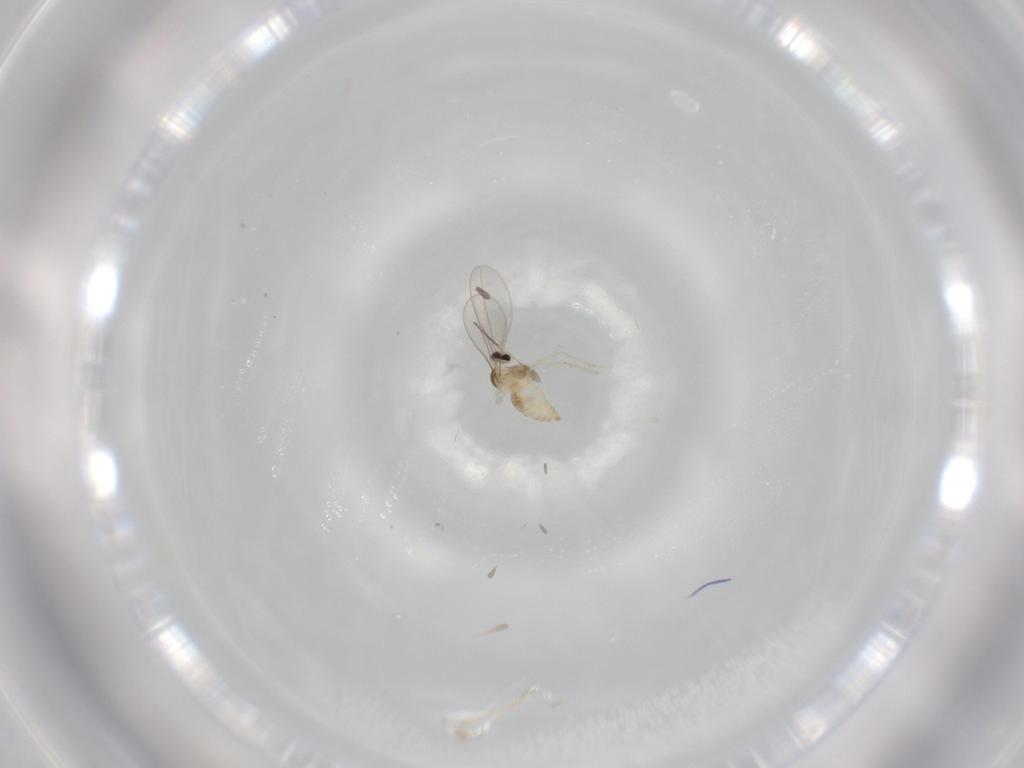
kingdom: Animalia
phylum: Arthropoda
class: Insecta
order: Diptera
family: Cecidomyiidae
